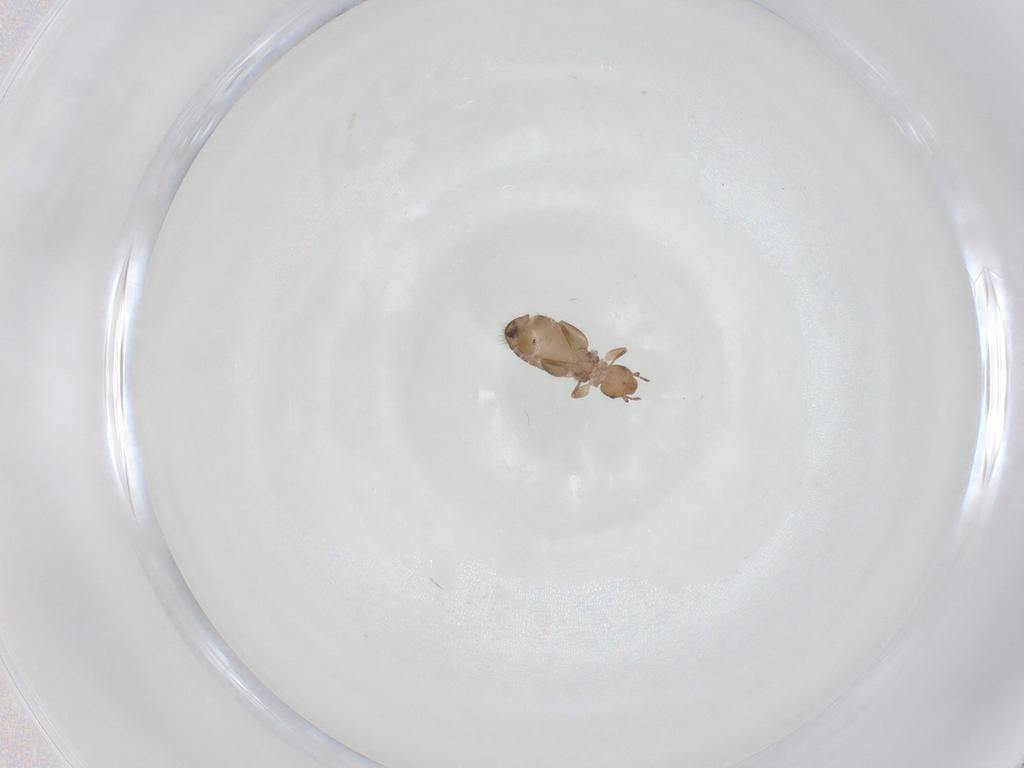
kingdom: Animalia
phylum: Arthropoda
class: Insecta
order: Psocodea
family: Liposcelididae
